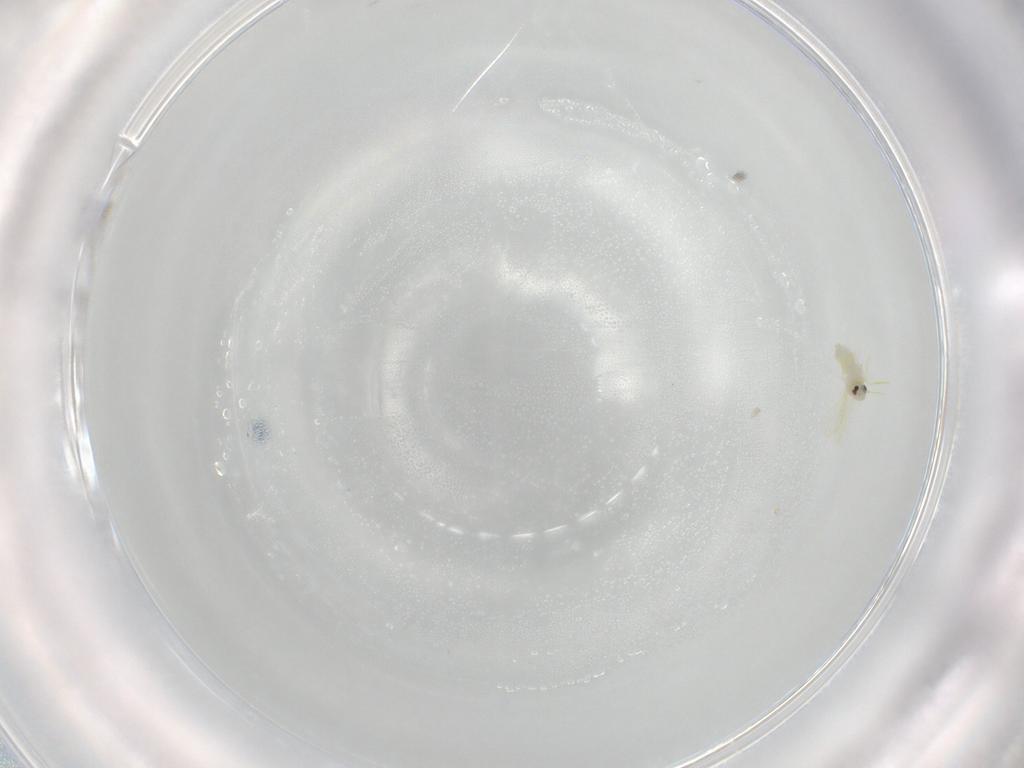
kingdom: Animalia
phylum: Arthropoda
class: Insecta
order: Hemiptera
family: Aleyrodidae
